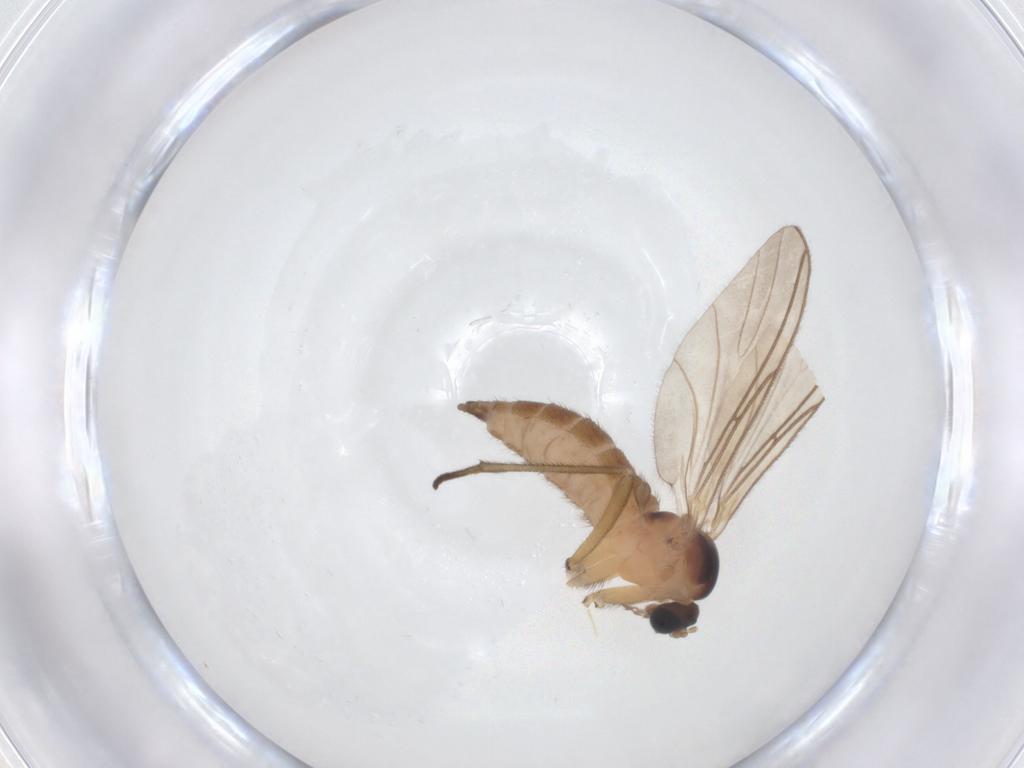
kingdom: Animalia
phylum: Arthropoda
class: Insecta
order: Diptera
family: Sciaridae
